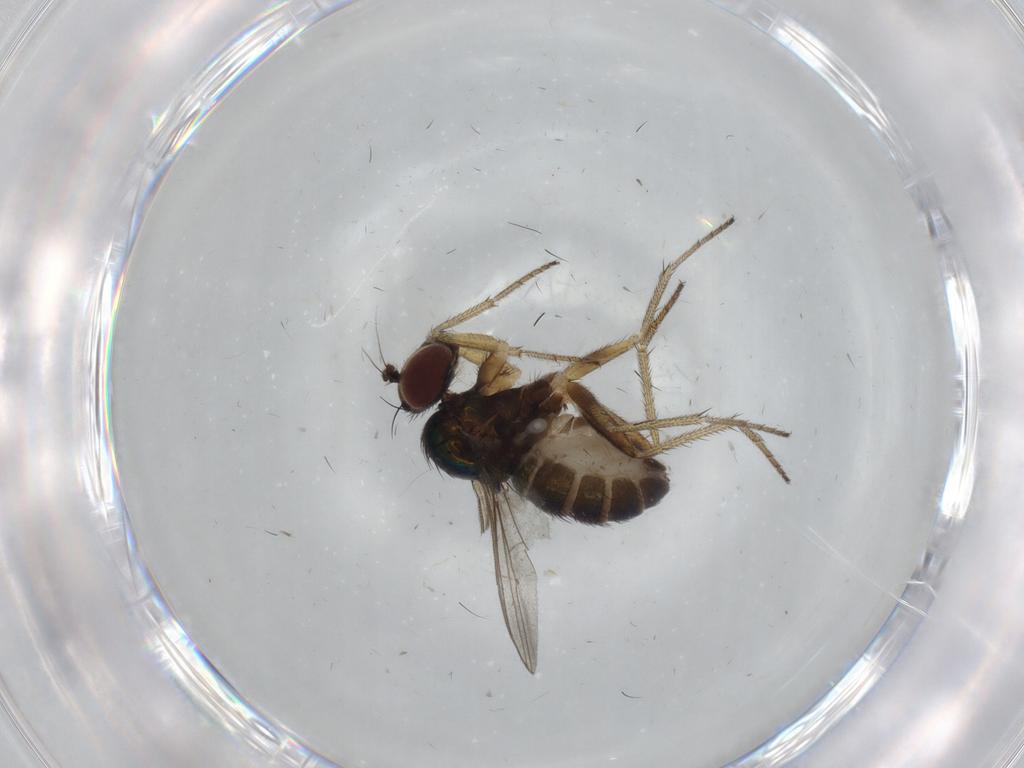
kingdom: Animalia
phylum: Arthropoda
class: Insecta
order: Diptera
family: Dolichopodidae
